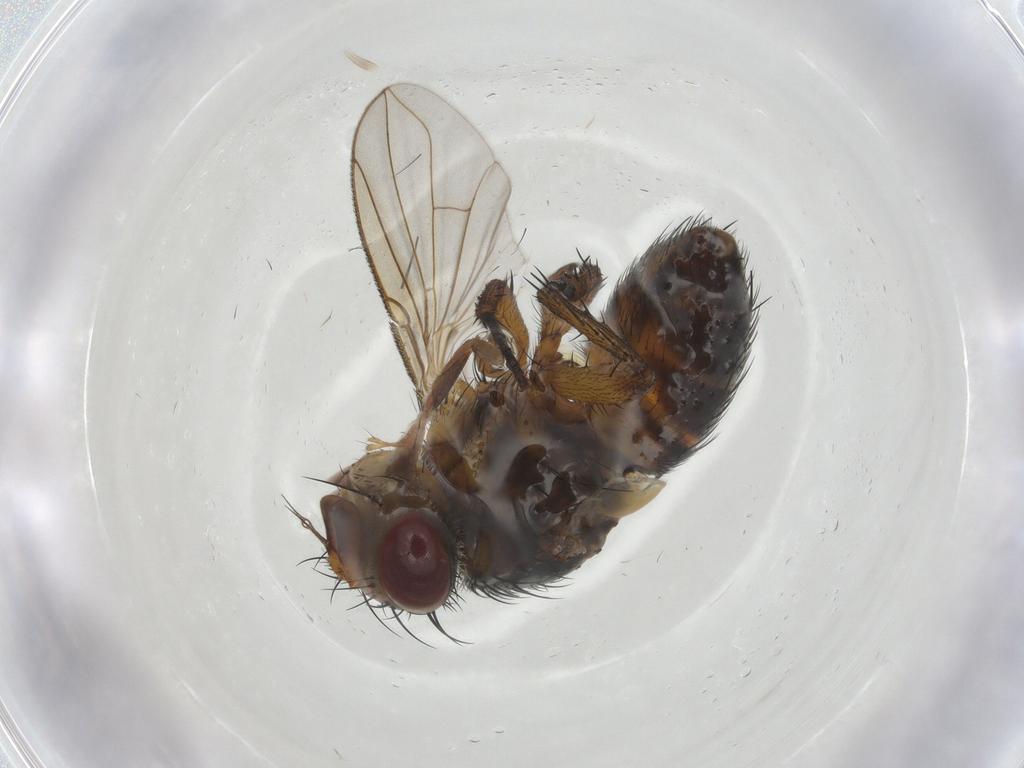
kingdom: Animalia
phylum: Arthropoda
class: Insecta
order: Diptera
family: Tachinidae
